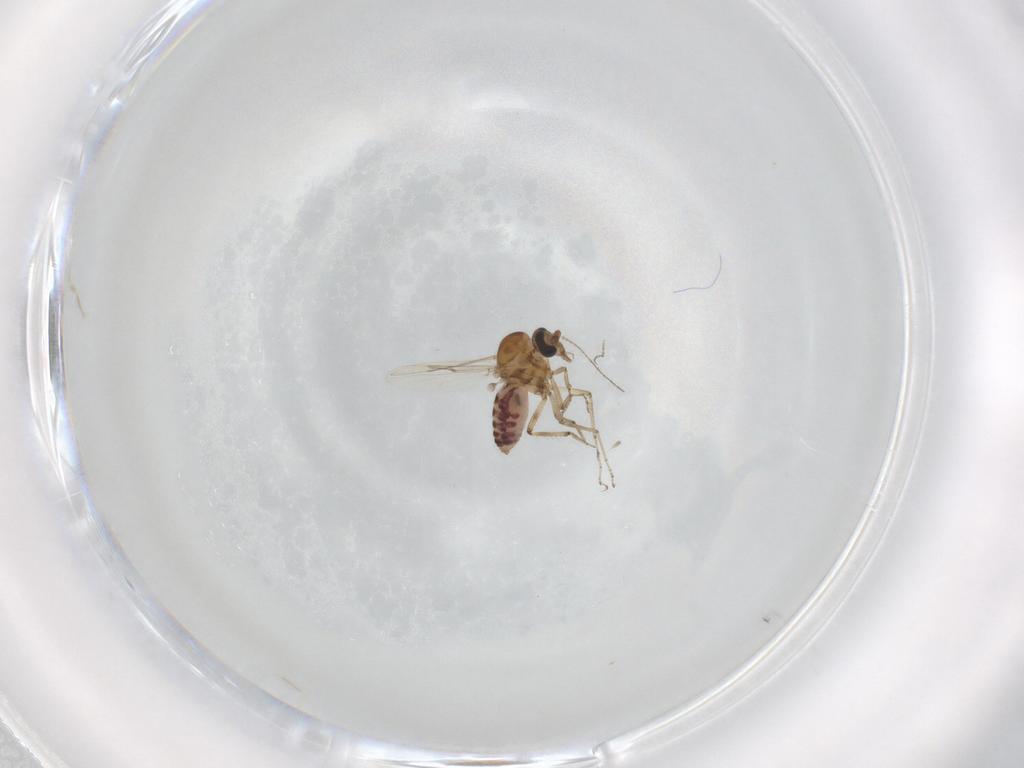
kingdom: Animalia
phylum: Arthropoda
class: Insecta
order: Diptera
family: Ceratopogonidae
